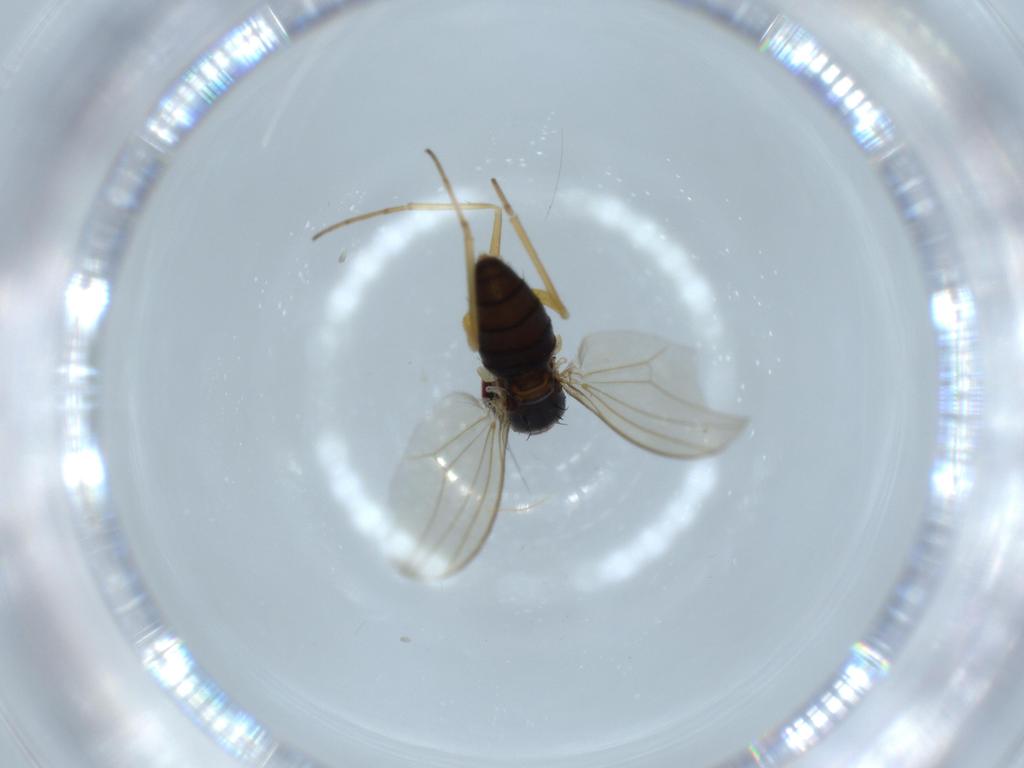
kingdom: Animalia
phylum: Arthropoda
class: Insecta
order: Diptera
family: Dolichopodidae
